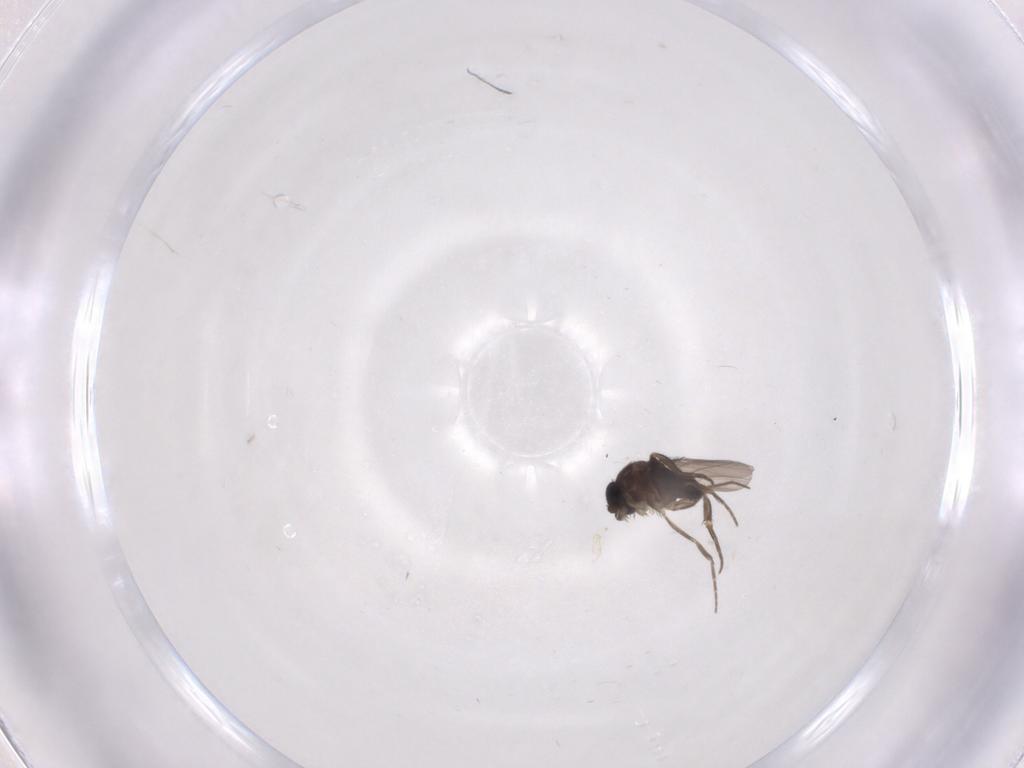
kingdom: Animalia
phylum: Arthropoda
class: Insecta
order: Diptera
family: Phoridae
